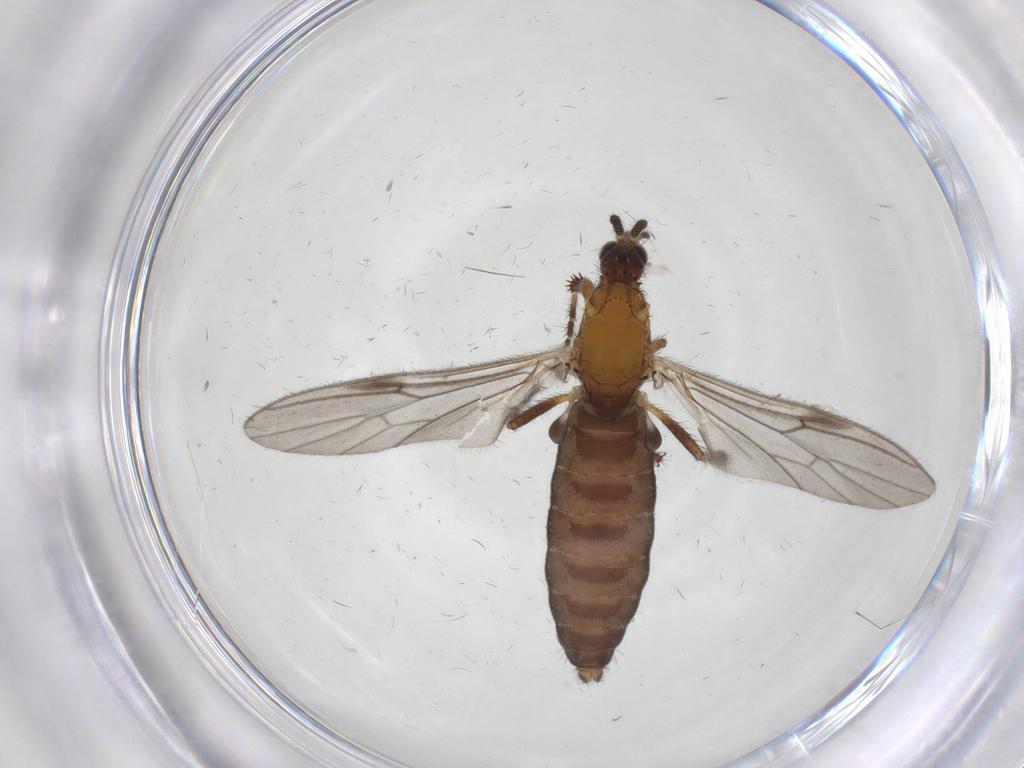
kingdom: Animalia
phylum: Arthropoda
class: Insecta
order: Diptera
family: Bibionidae
